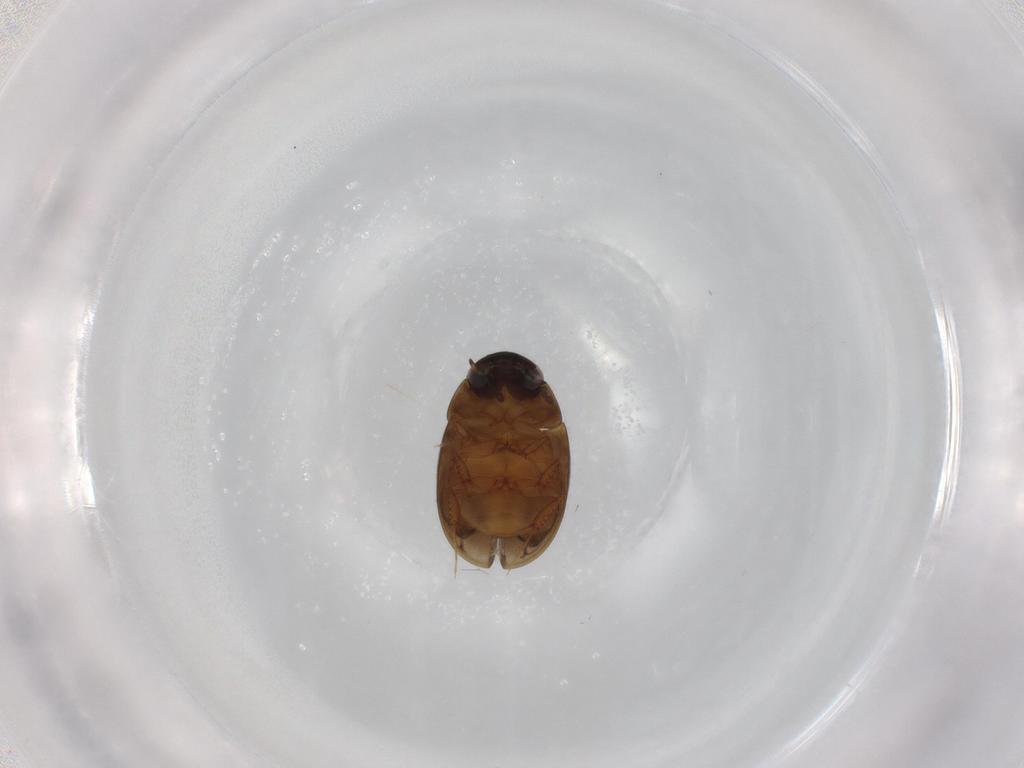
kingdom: Animalia
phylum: Arthropoda
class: Insecta
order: Coleoptera
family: Hydrophilidae
